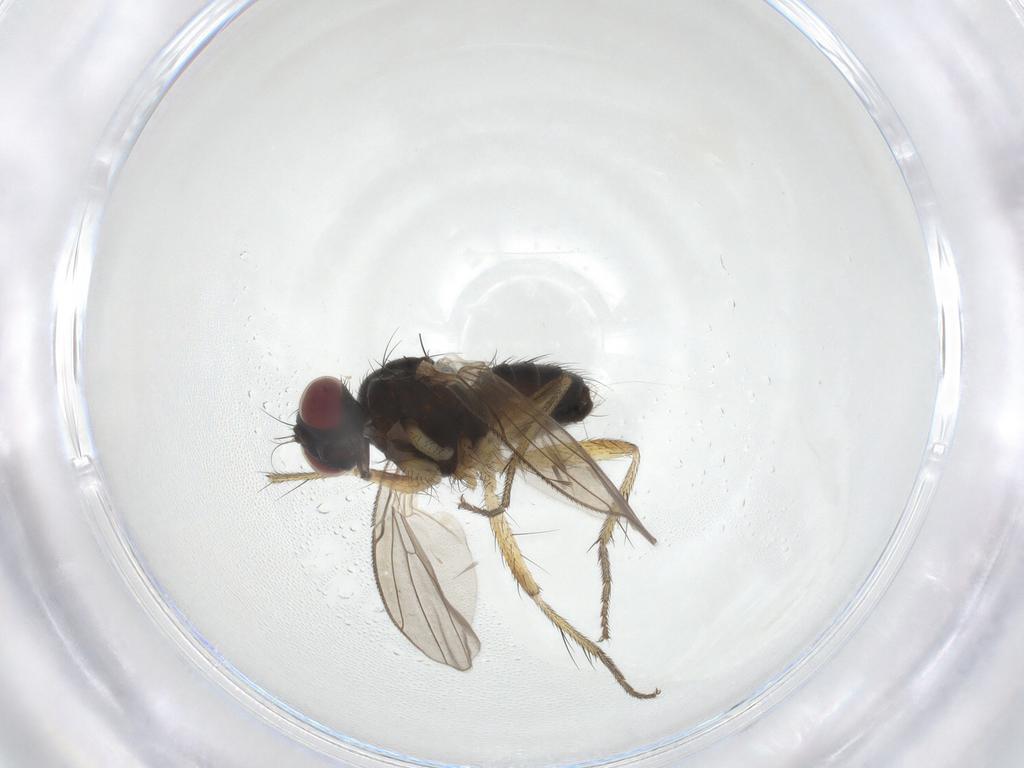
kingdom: Animalia
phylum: Arthropoda
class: Insecta
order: Diptera
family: Muscidae
